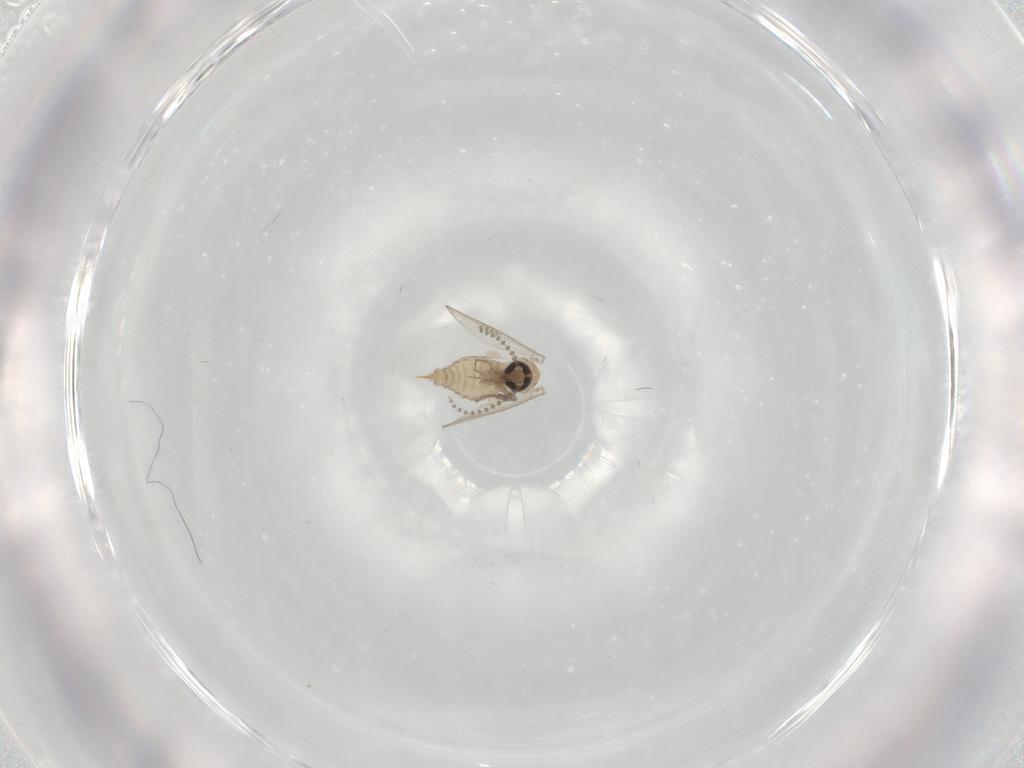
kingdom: Animalia
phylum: Arthropoda
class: Insecta
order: Diptera
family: Psychodidae
